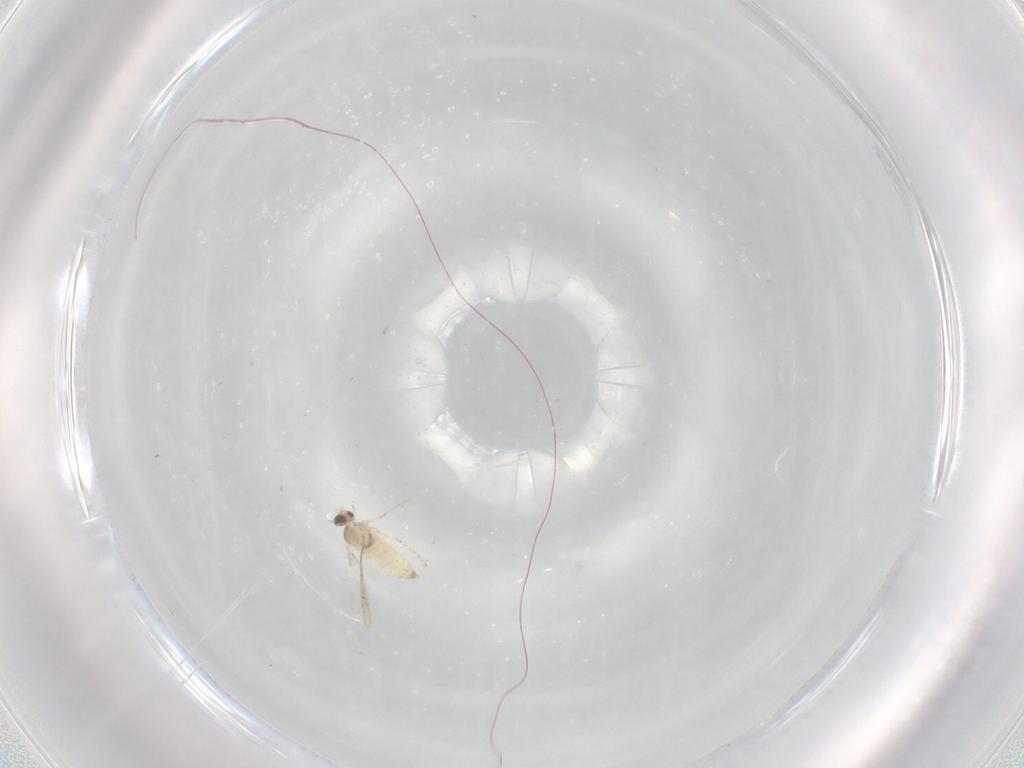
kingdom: Animalia
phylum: Arthropoda
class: Insecta
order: Diptera
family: Cecidomyiidae
